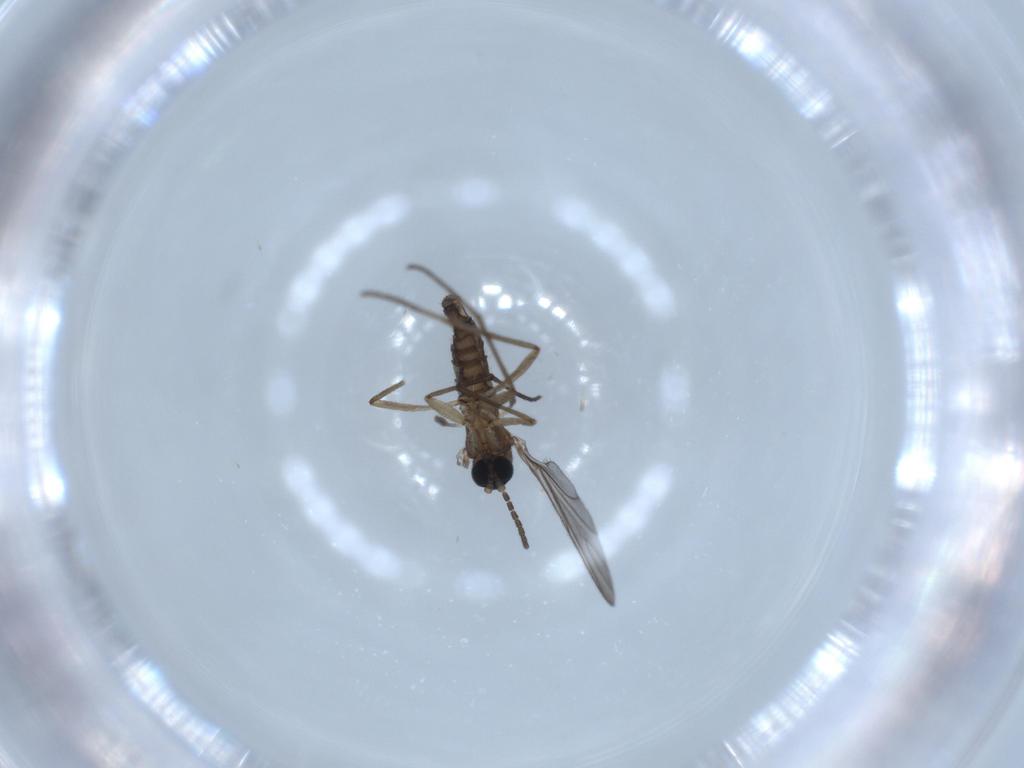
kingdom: Animalia
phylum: Arthropoda
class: Insecta
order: Diptera
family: Sciaridae
